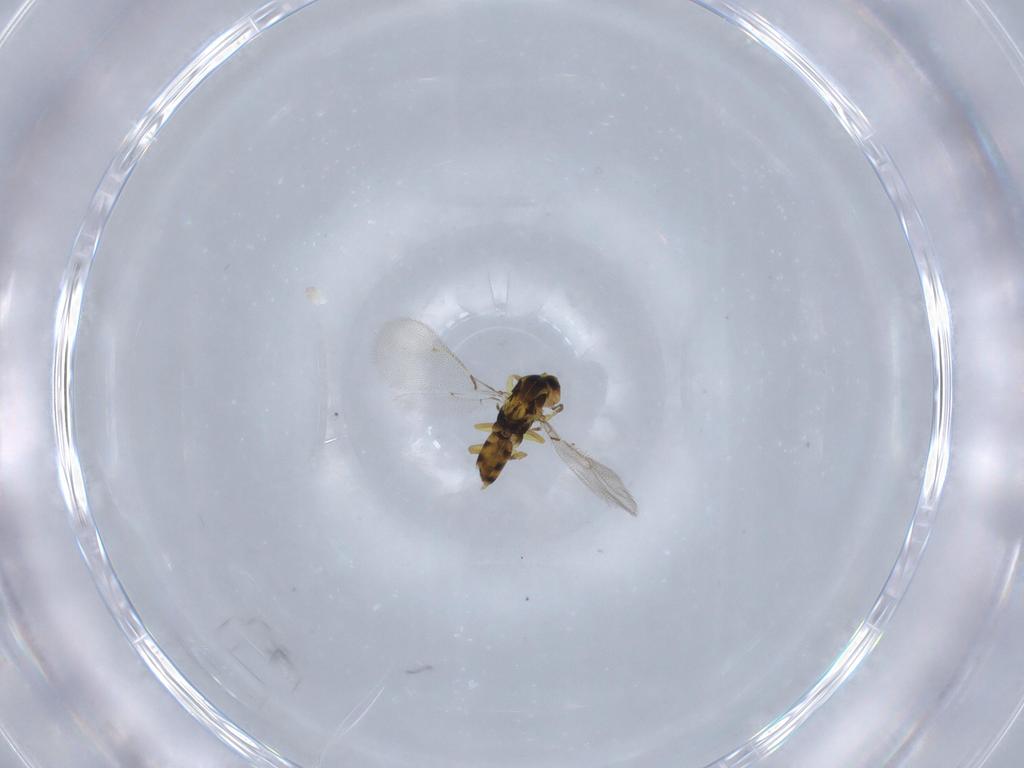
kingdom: Animalia
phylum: Arthropoda
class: Insecta
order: Hymenoptera
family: Eulophidae
